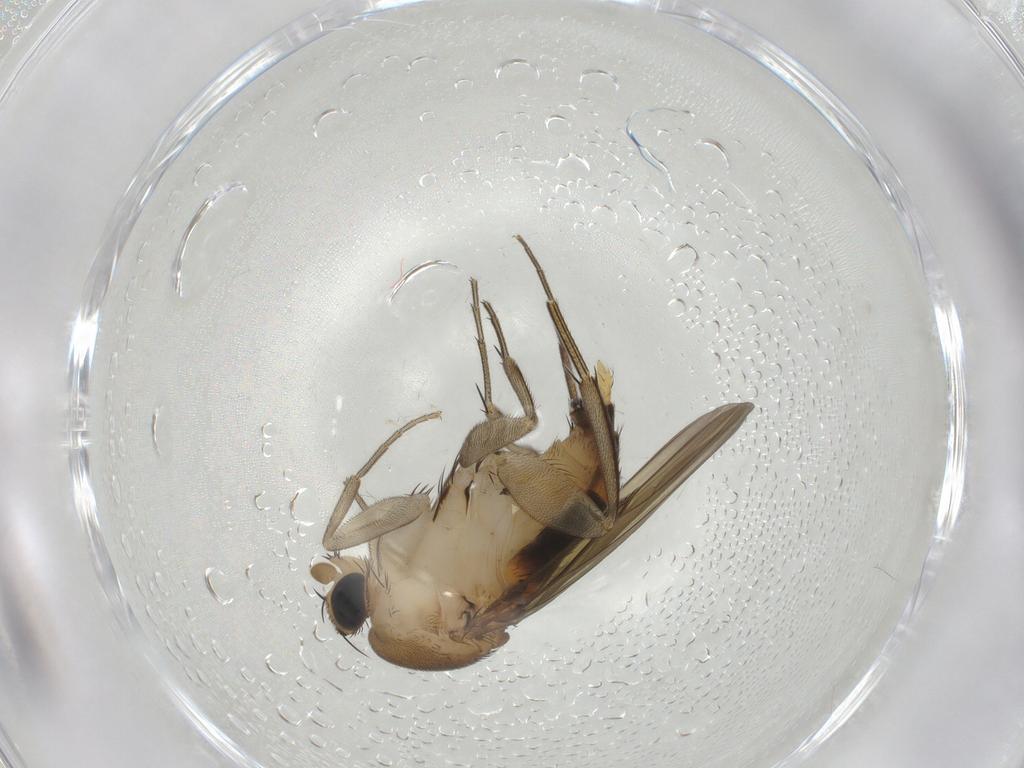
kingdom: Animalia
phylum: Arthropoda
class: Insecta
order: Diptera
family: Phoridae
